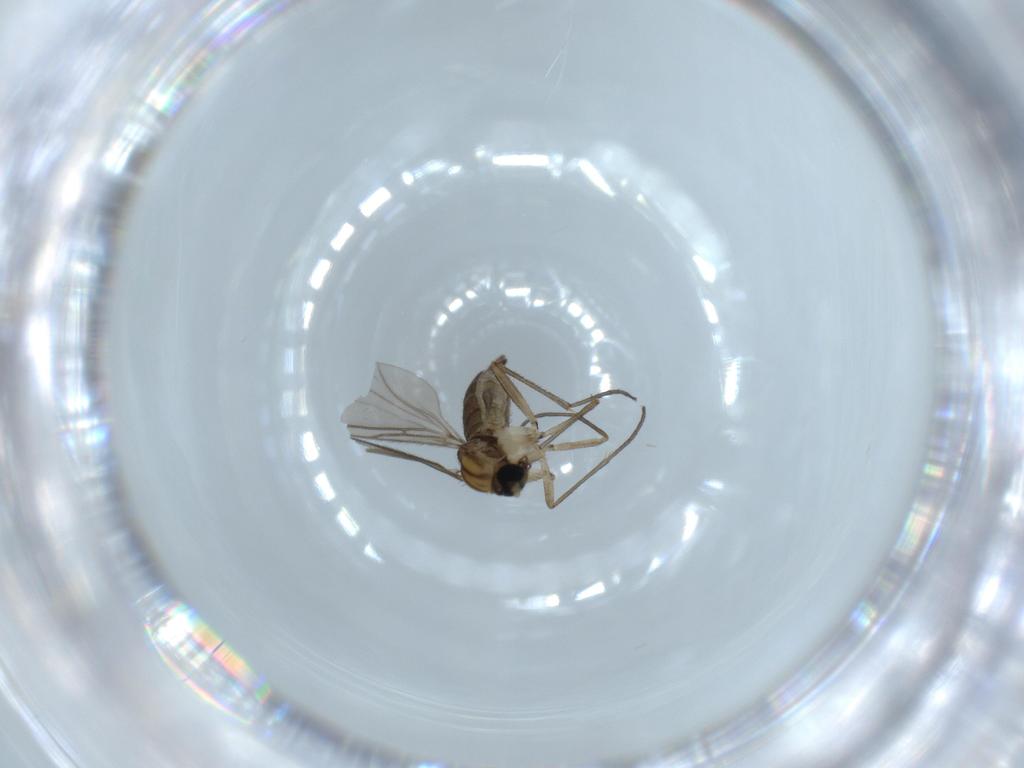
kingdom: Animalia
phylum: Arthropoda
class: Insecta
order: Diptera
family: Sciaridae
